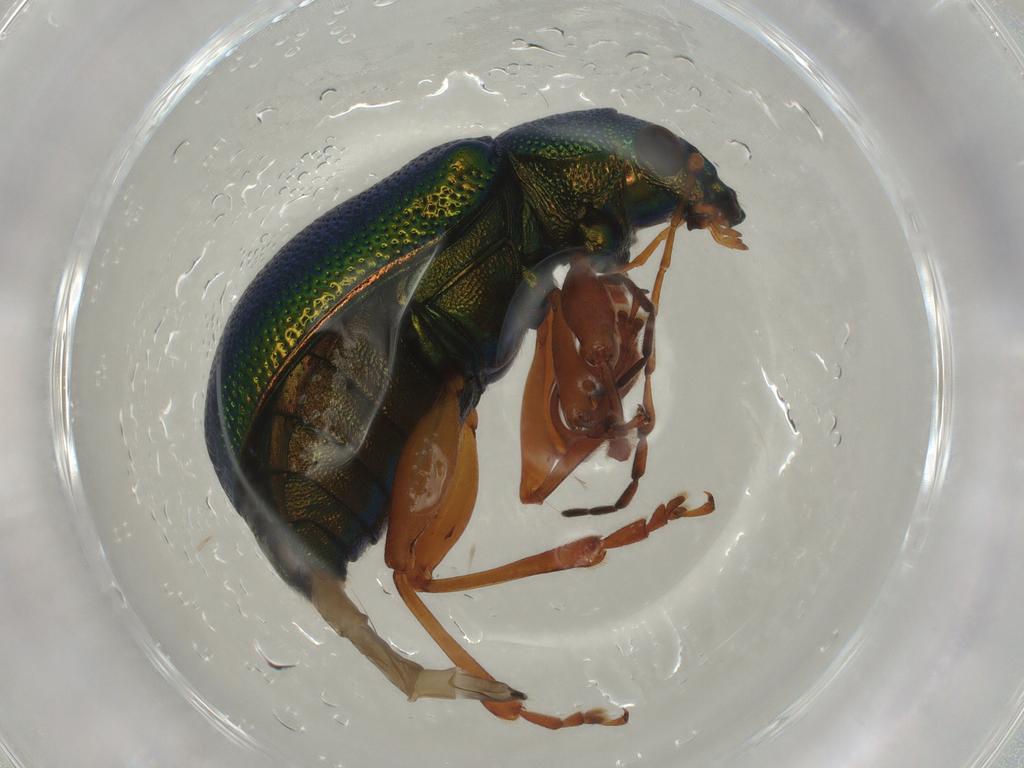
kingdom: Animalia
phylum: Arthropoda
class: Insecta
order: Coleoptera
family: Chrysomelidae
